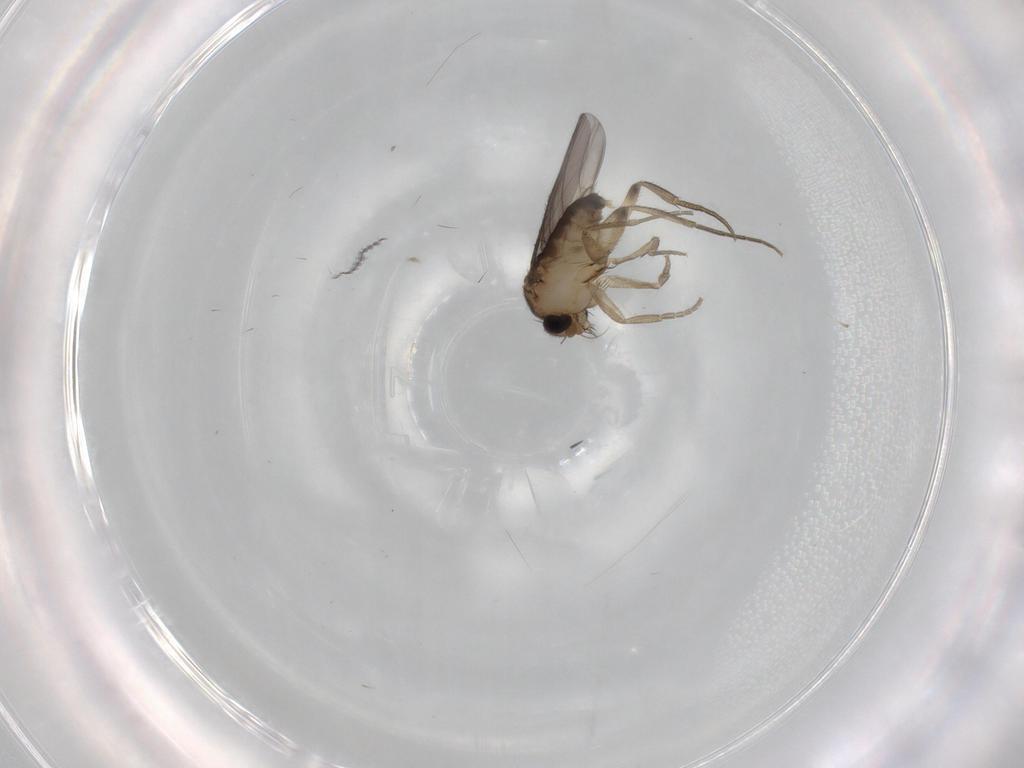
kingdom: Animalia
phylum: Arthropoda
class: Insecta
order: Diptera
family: Phoridae
